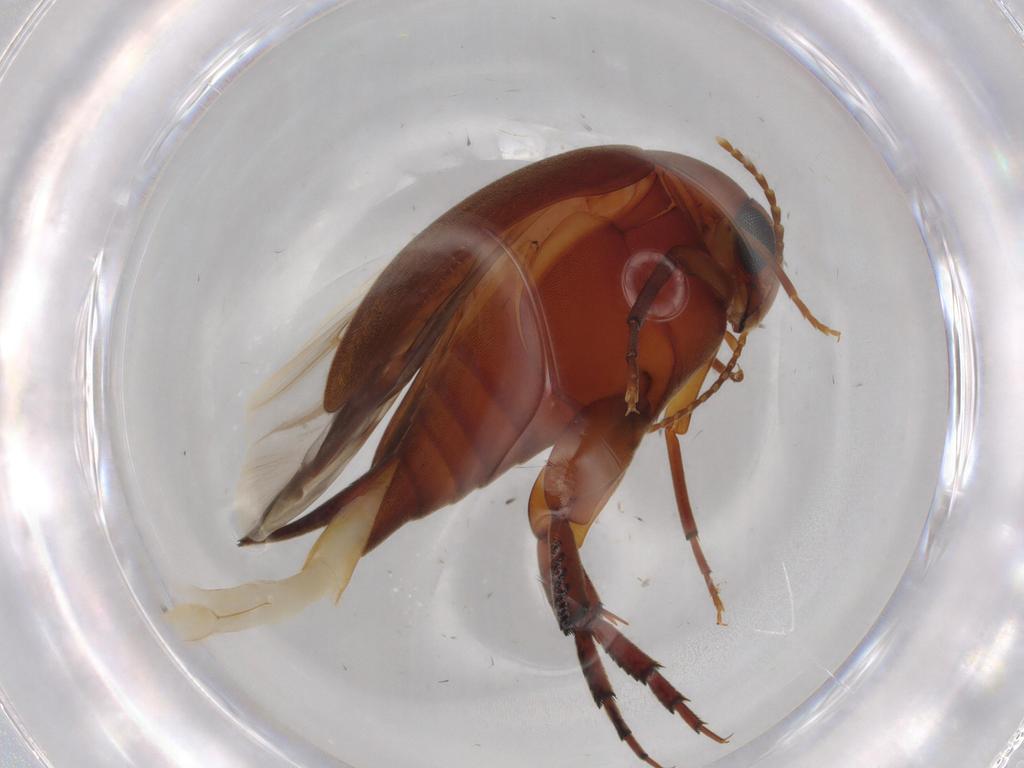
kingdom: Animalia
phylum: Arthropoda
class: Insecta
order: Coleoptera
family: Scraptiidae
